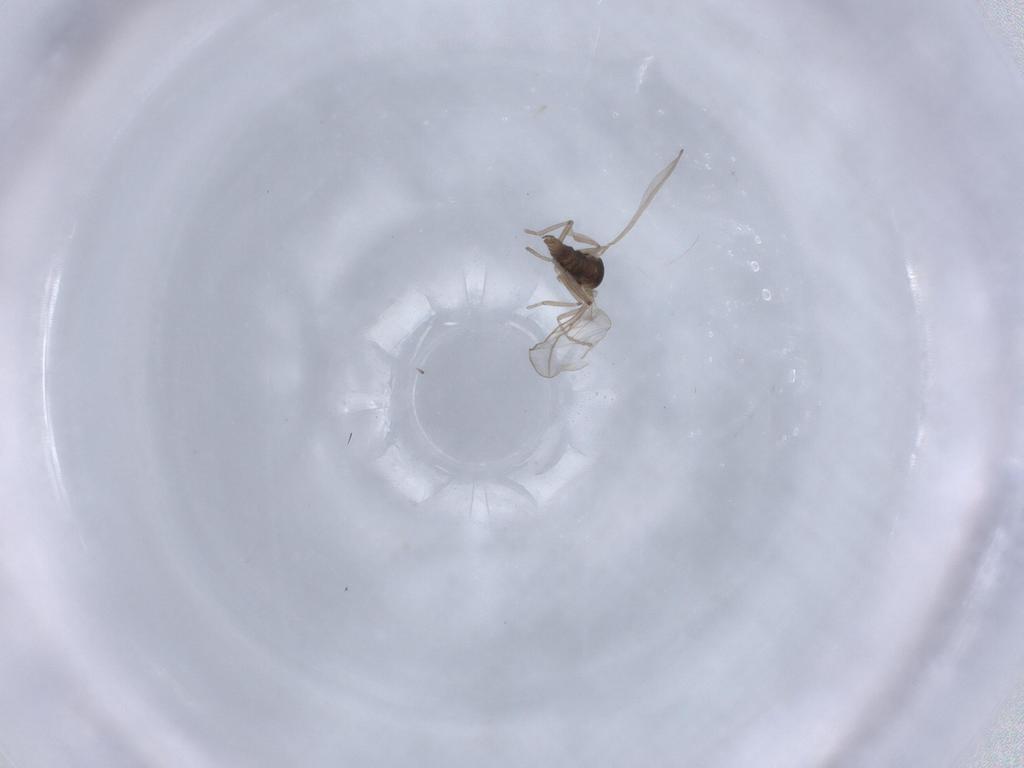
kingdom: Animalia
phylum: Arthropoda
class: Insecta
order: Diptera
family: Cecidomyiidae
